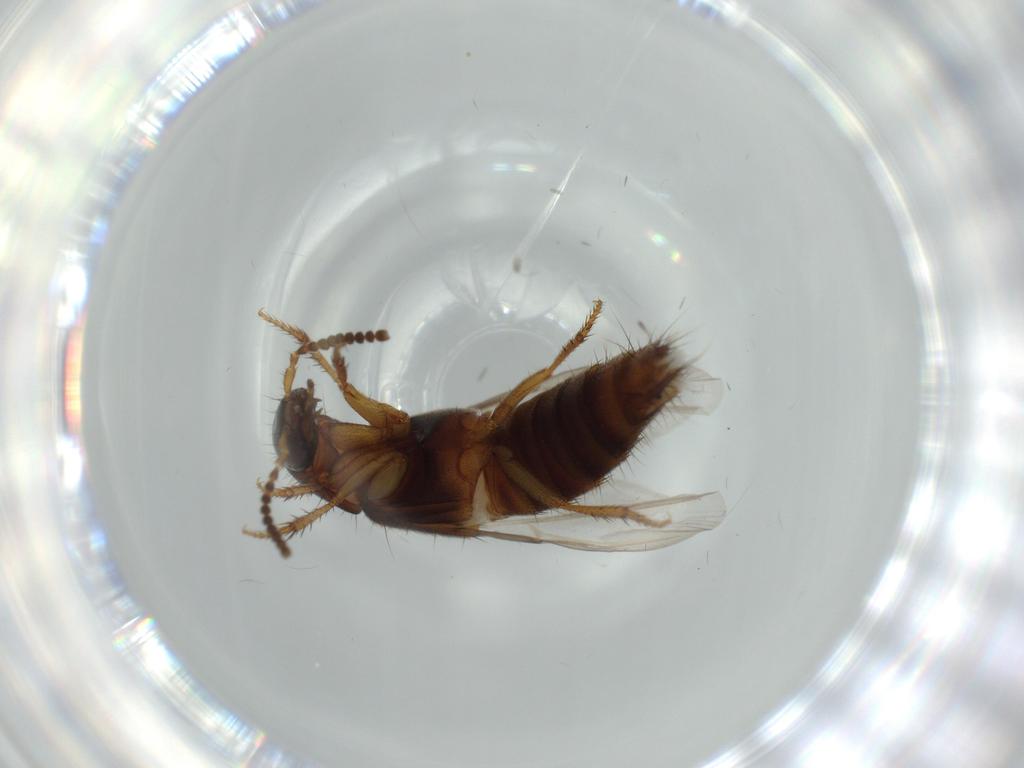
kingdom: Animalia
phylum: Arthropoda
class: Insecta
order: Coleoptera
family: Staphylinidae
